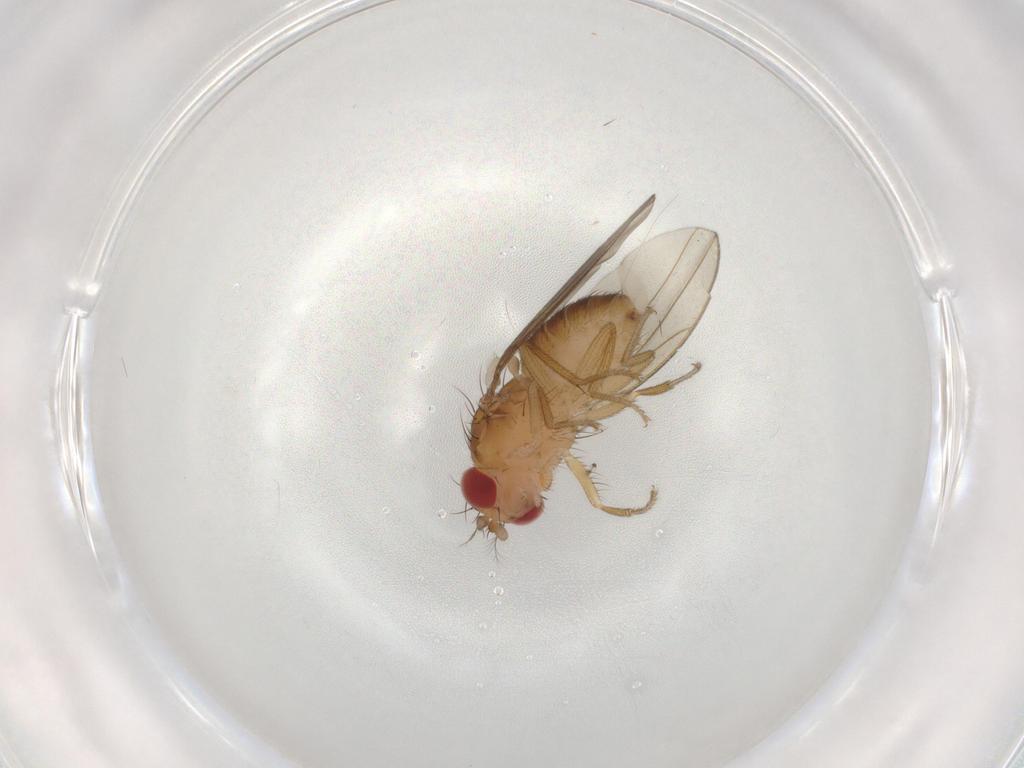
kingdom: Animalia
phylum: Arthropoda
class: Insecta
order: Diptera
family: Drosophilidae
